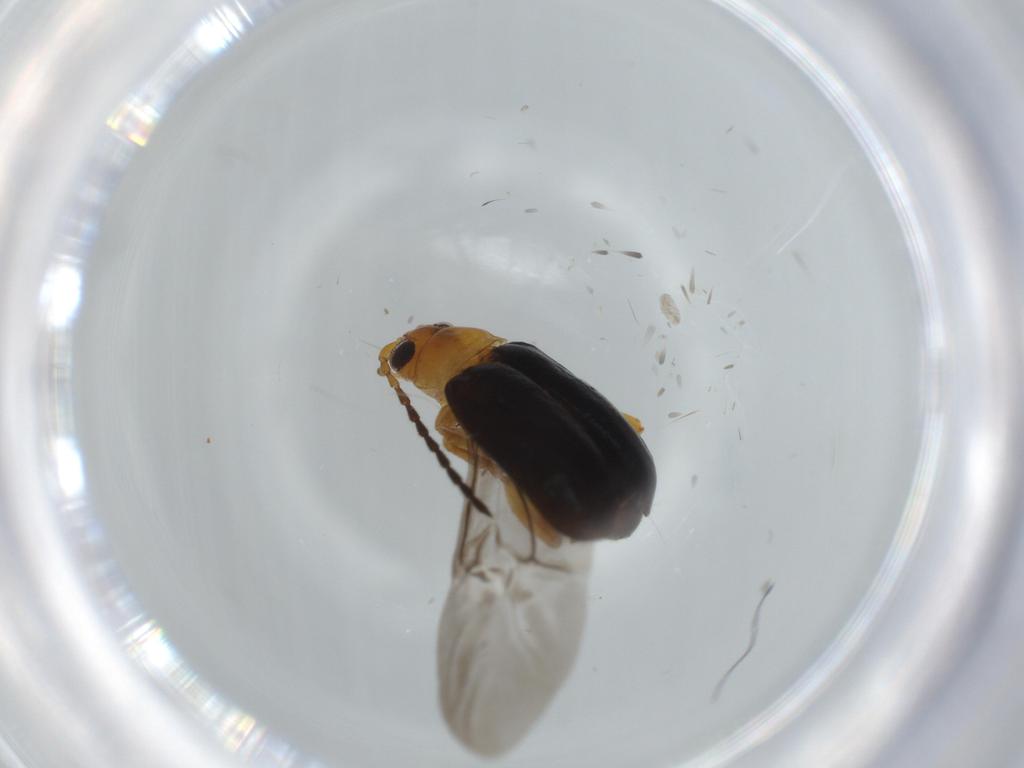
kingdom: Animalia
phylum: Arthropoda
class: Insecta
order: Coleoptera
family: Chrysomelidae
